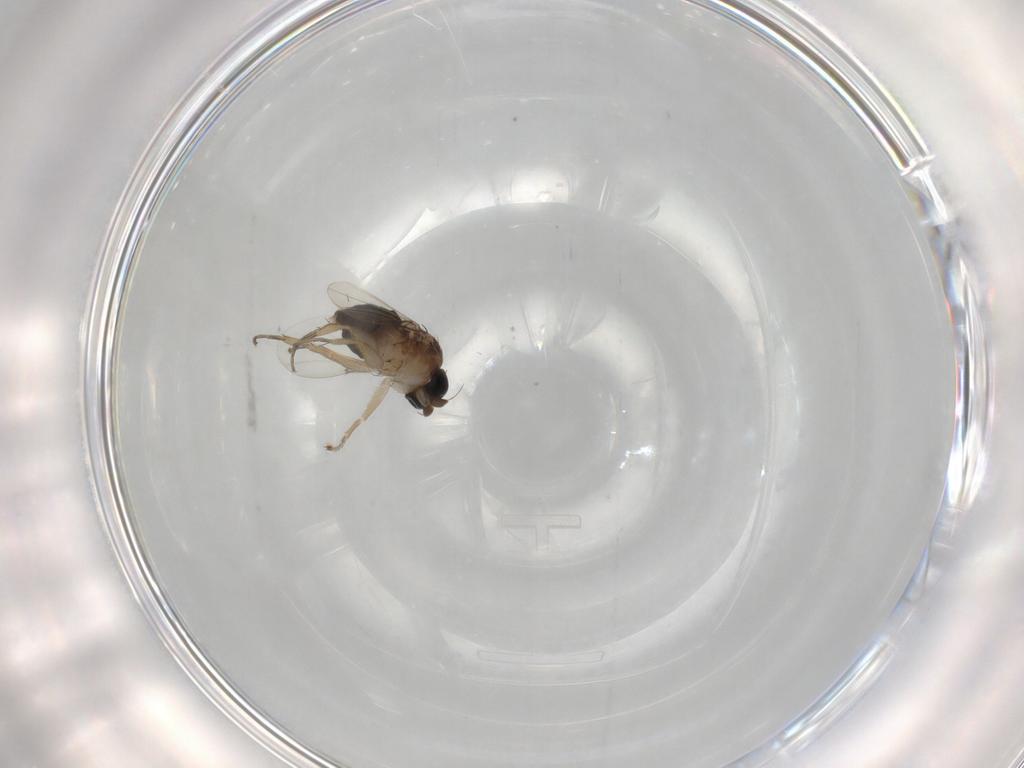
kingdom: Animalia
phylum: Arthropoda
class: Insecta
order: Diptera
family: Phoridae
